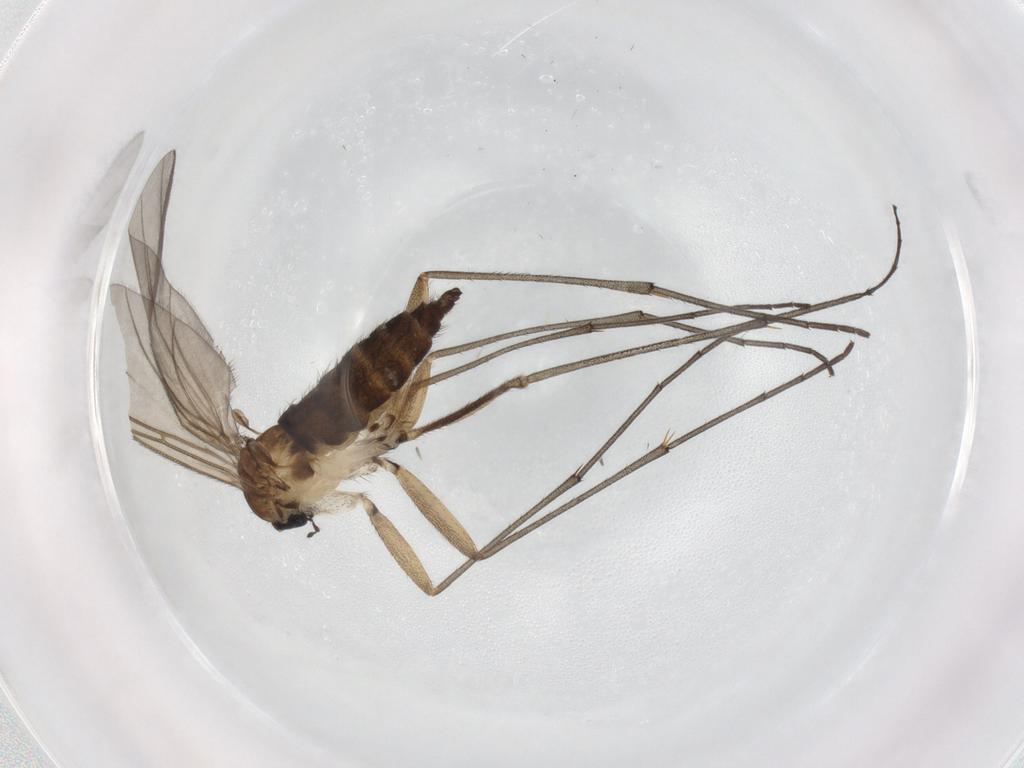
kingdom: Animalia
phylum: Arthropoda
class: Insecta
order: Diptera
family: Sciaridae
